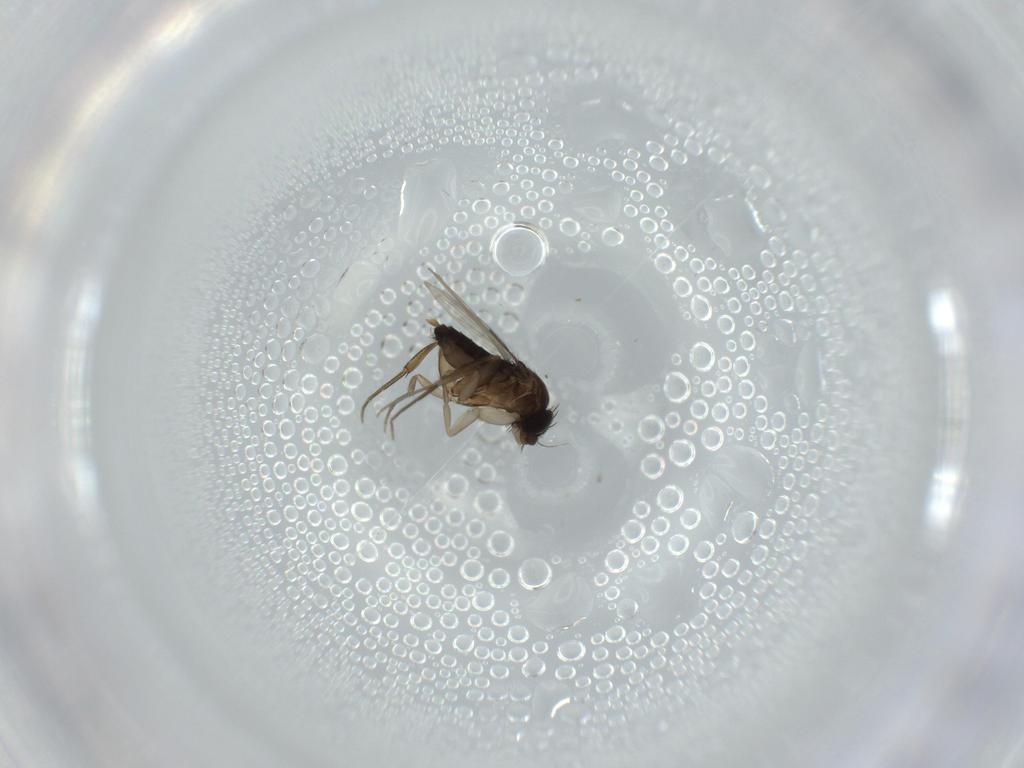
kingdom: Animalia
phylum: Arthropoda
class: Insecta
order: Diptera
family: Phoridae
